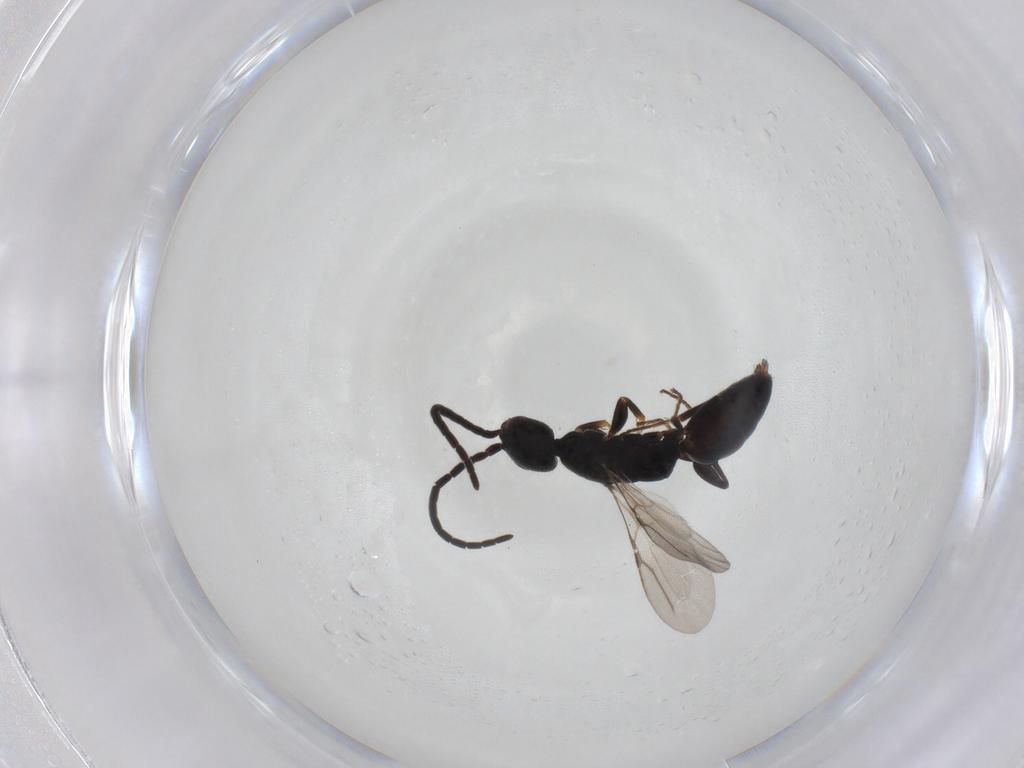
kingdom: Animalia
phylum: Arthropoda
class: Insecta
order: Hymenoptera
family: Bethylidae
